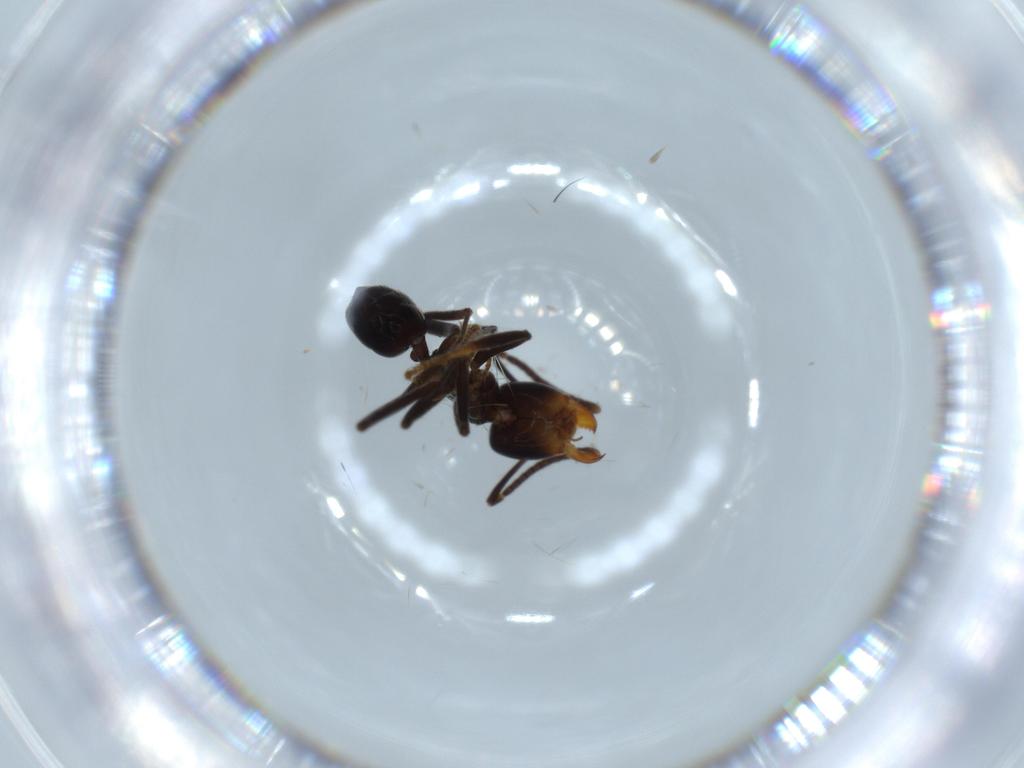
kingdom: Animalia
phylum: Arthropoda
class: Insecta
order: Hymenoptera
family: Formicidae
